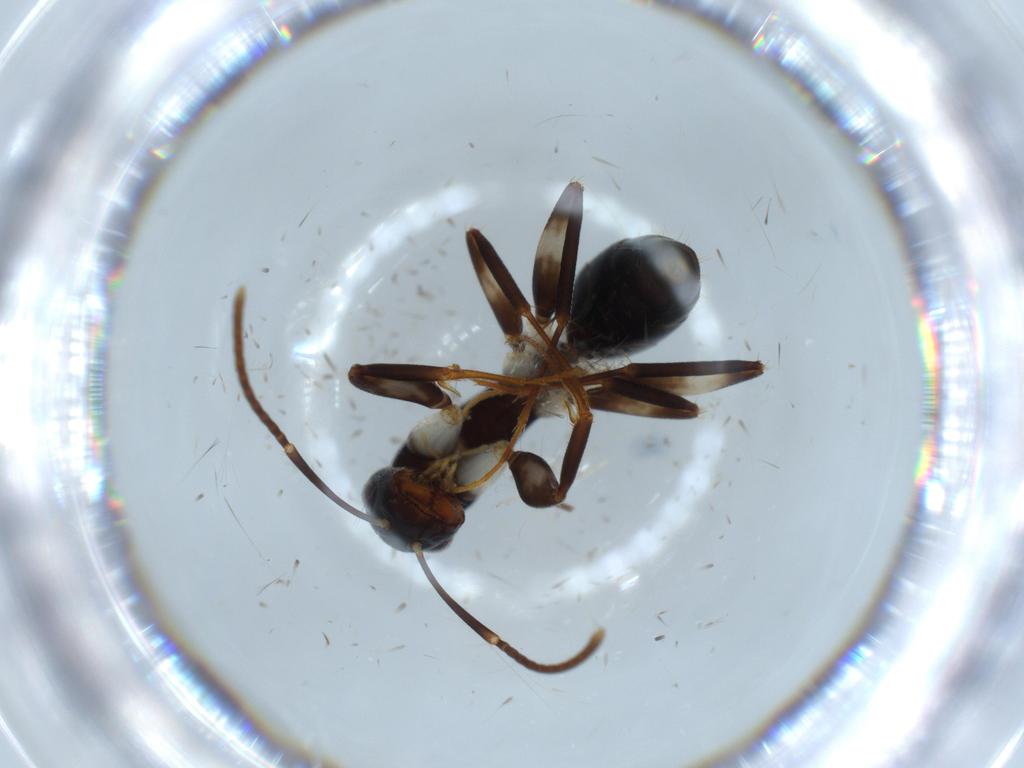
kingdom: Animalia
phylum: Arthropoda
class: Insecta
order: Hymenoptera
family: Formicidae
